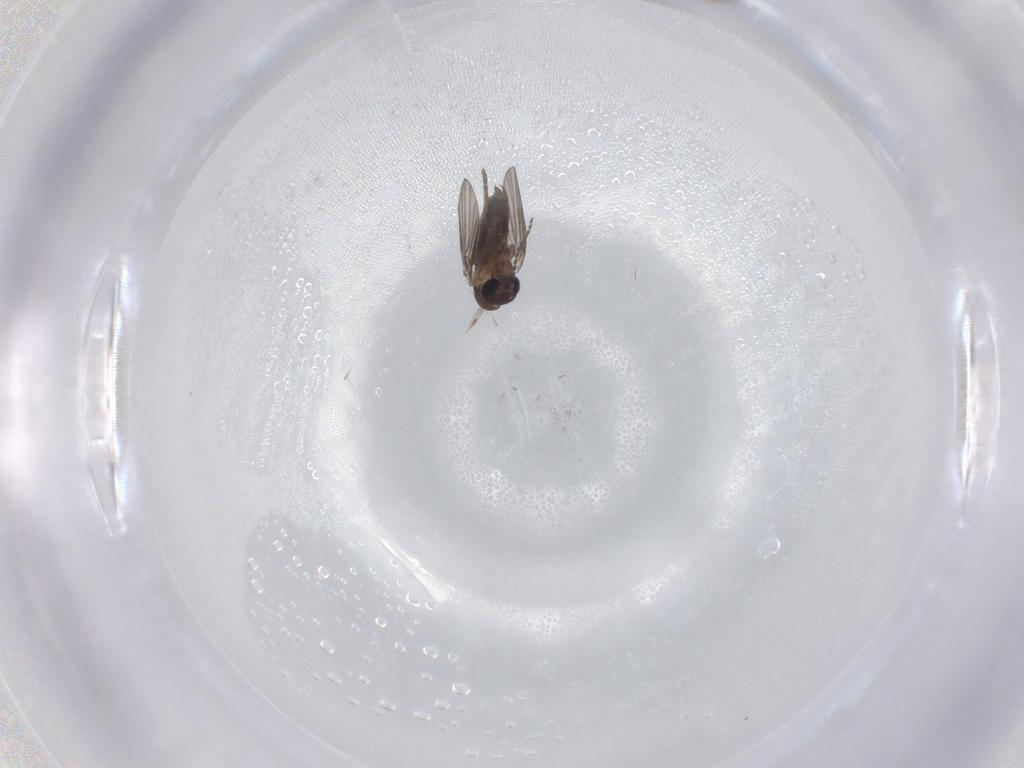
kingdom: Animalia
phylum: Arthropoda
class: Insecta
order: Diptera
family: Psychodidae
